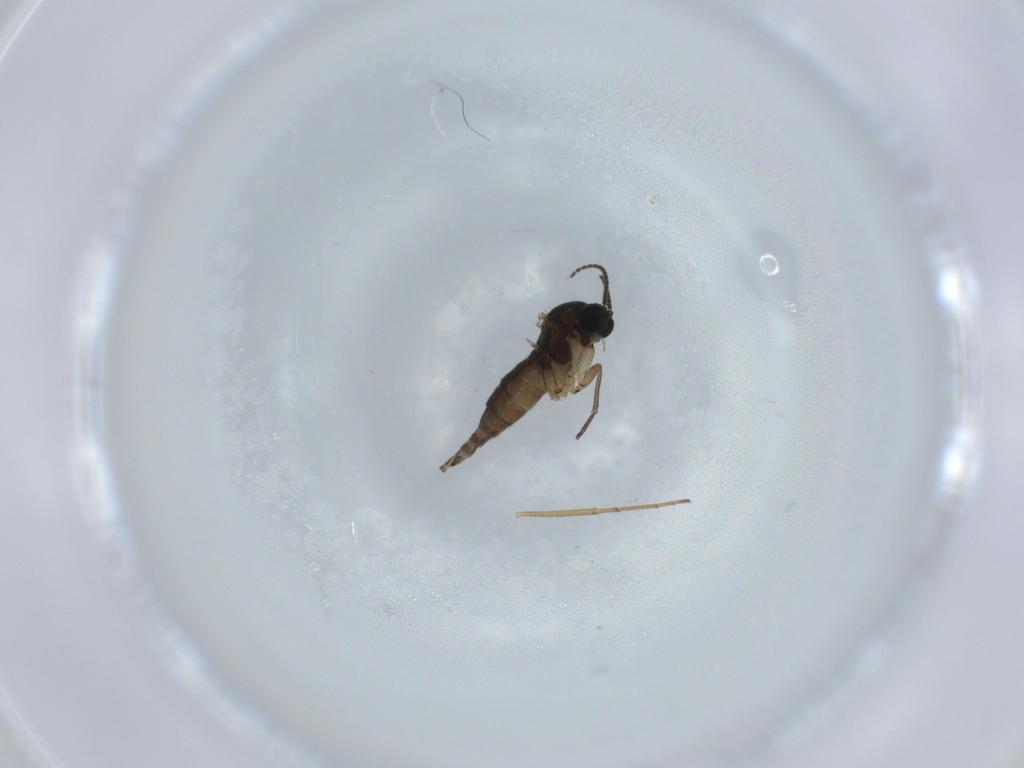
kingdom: Animalia
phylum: Arthropoda
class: Insecta
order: Diptera
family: Sciaridae
